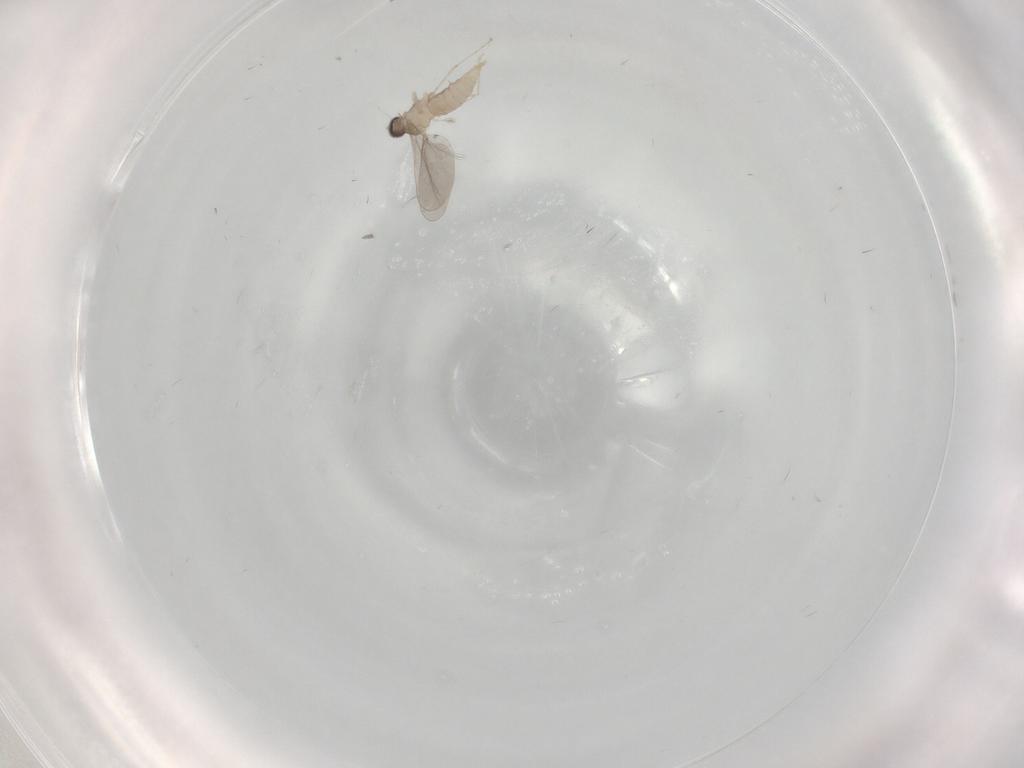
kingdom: Animalia
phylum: Arthropoda
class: Insecta
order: Diptera
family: Cecidomyiidae
